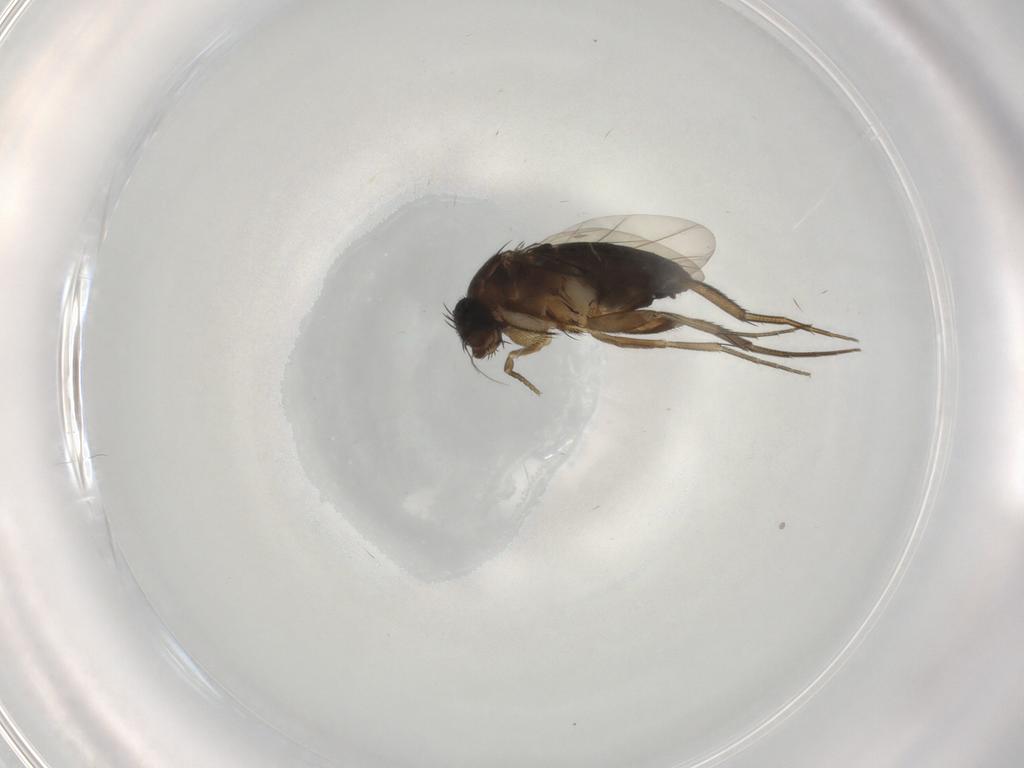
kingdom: Animalia
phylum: Arthropoda
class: Insecta
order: Diptera
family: Phoridae
